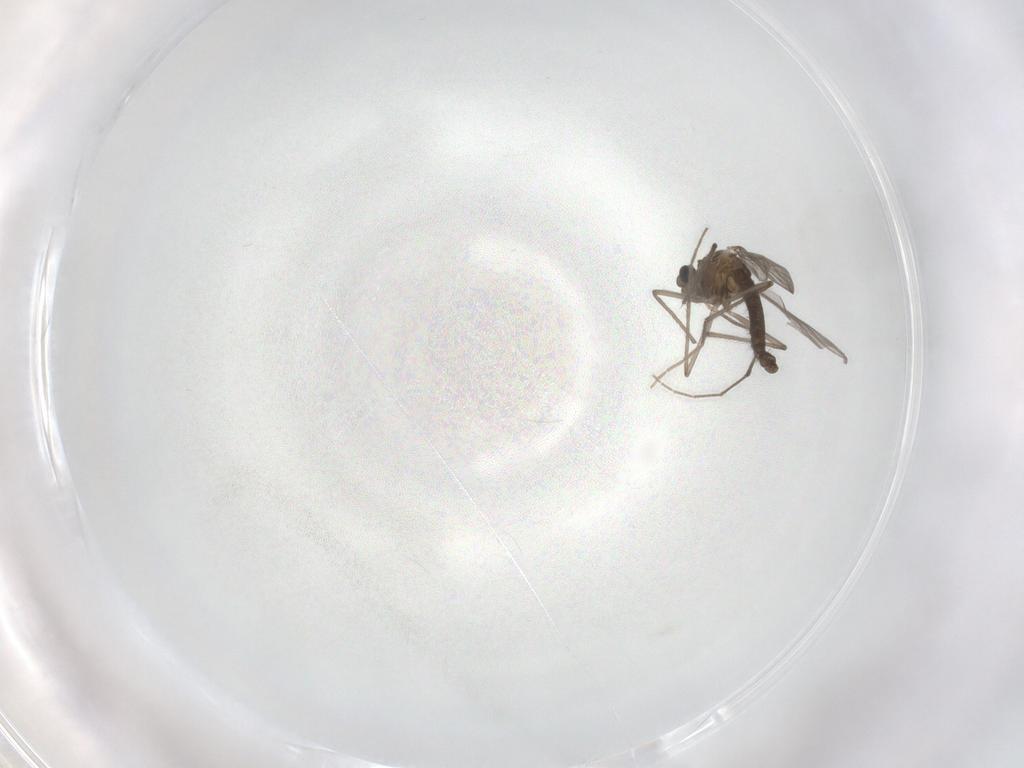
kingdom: Animalia
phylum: Arthropoda
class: Insecta
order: Diptera
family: Chironomidae
